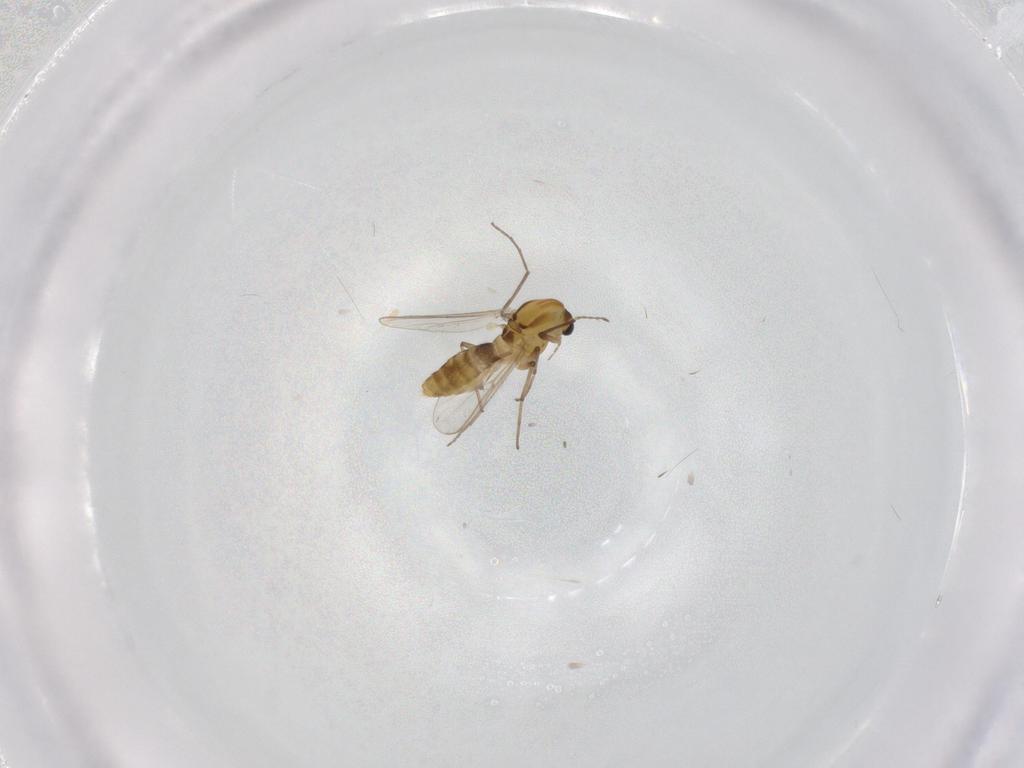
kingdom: Animalia
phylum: Arthropoda
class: Insecta
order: Diptera
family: Chironomidae
